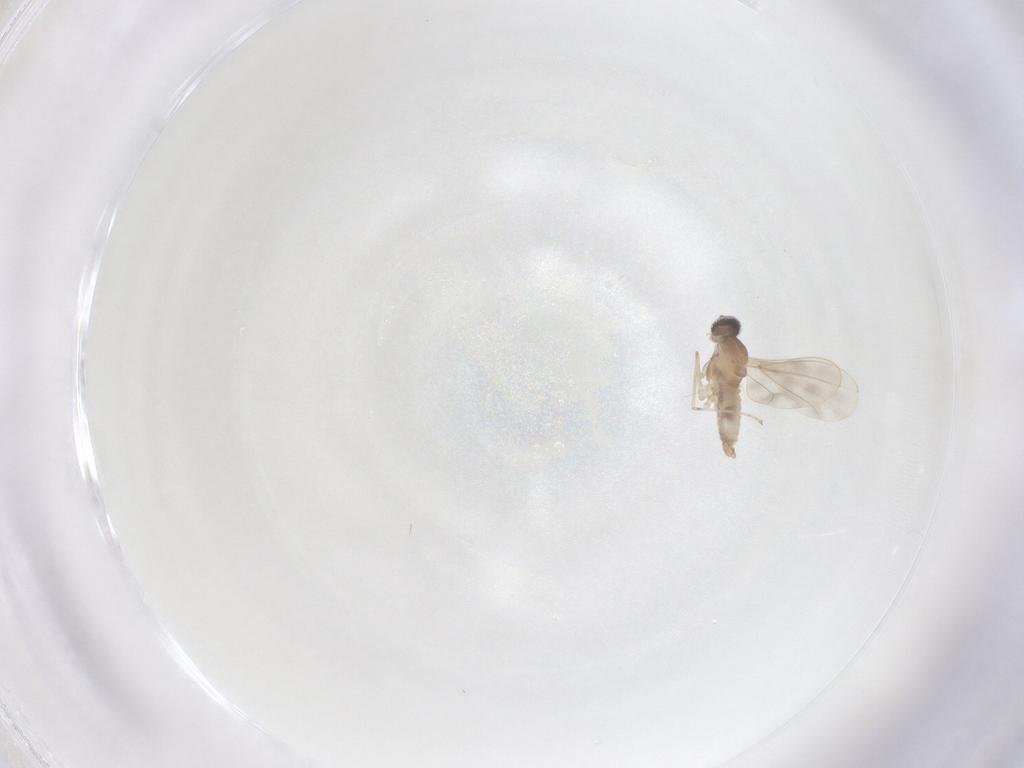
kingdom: Animalia
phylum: Arthropoda
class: Insecta
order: Diptera
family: Cecidomyiidae
